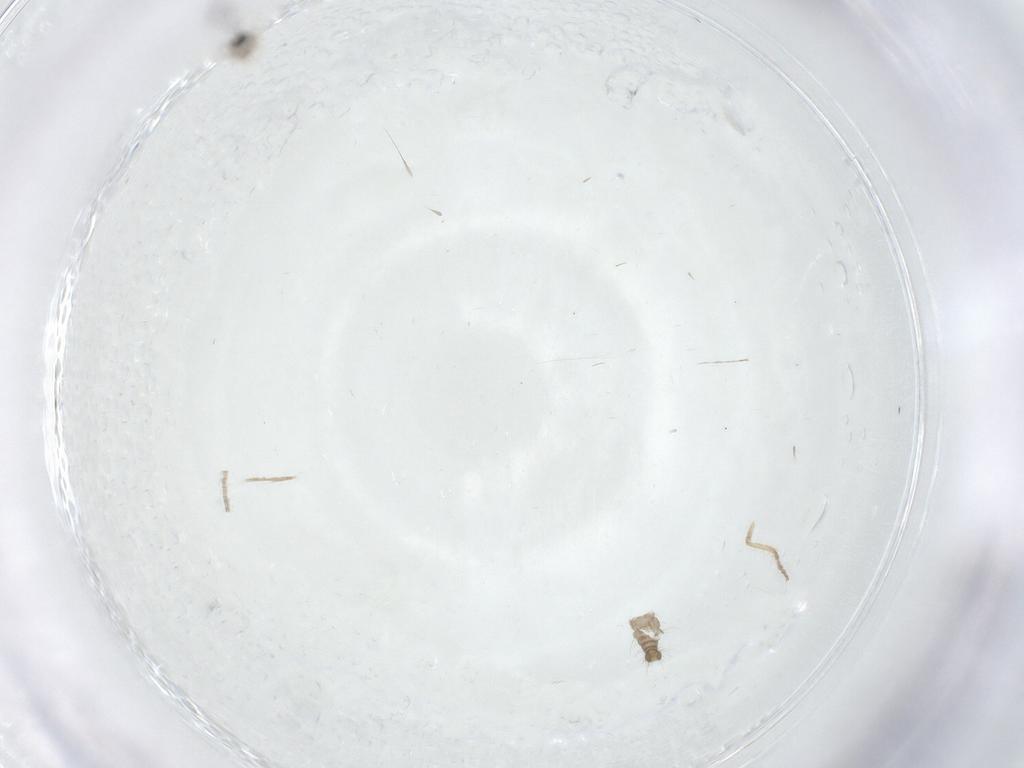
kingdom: Animalia
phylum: Arthropoda
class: Insecta
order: Diptera
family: Cecidomyiidae
